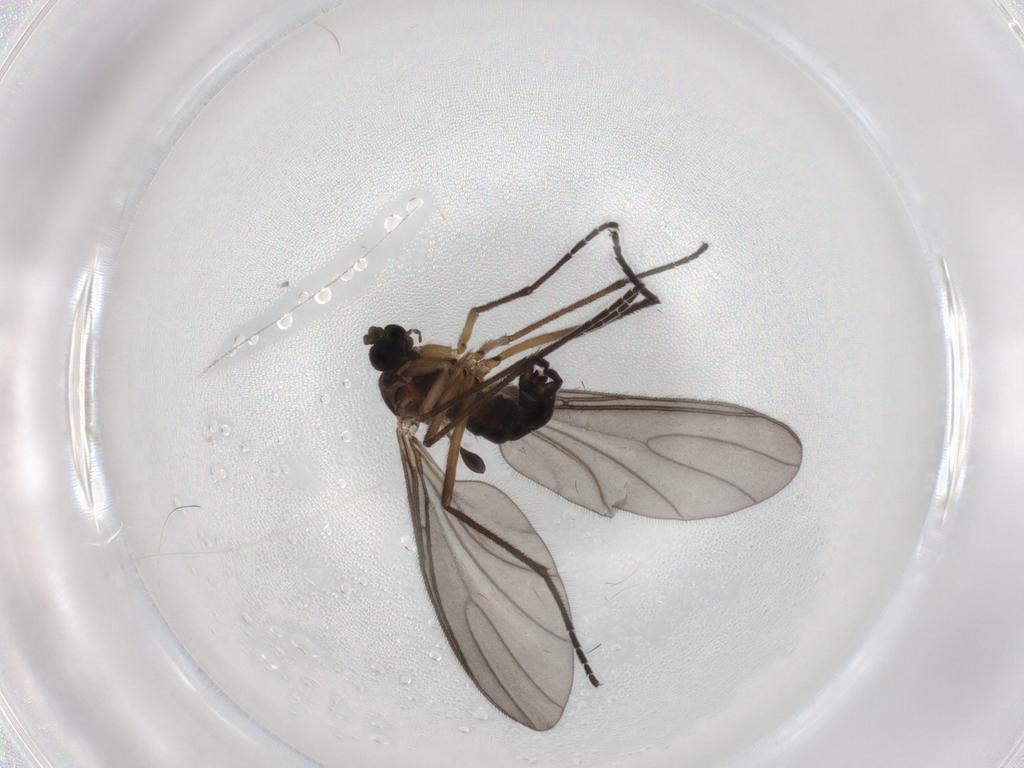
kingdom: Animalia
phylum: Arthropoda
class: Insecta
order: Diptera
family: Sciaridae
